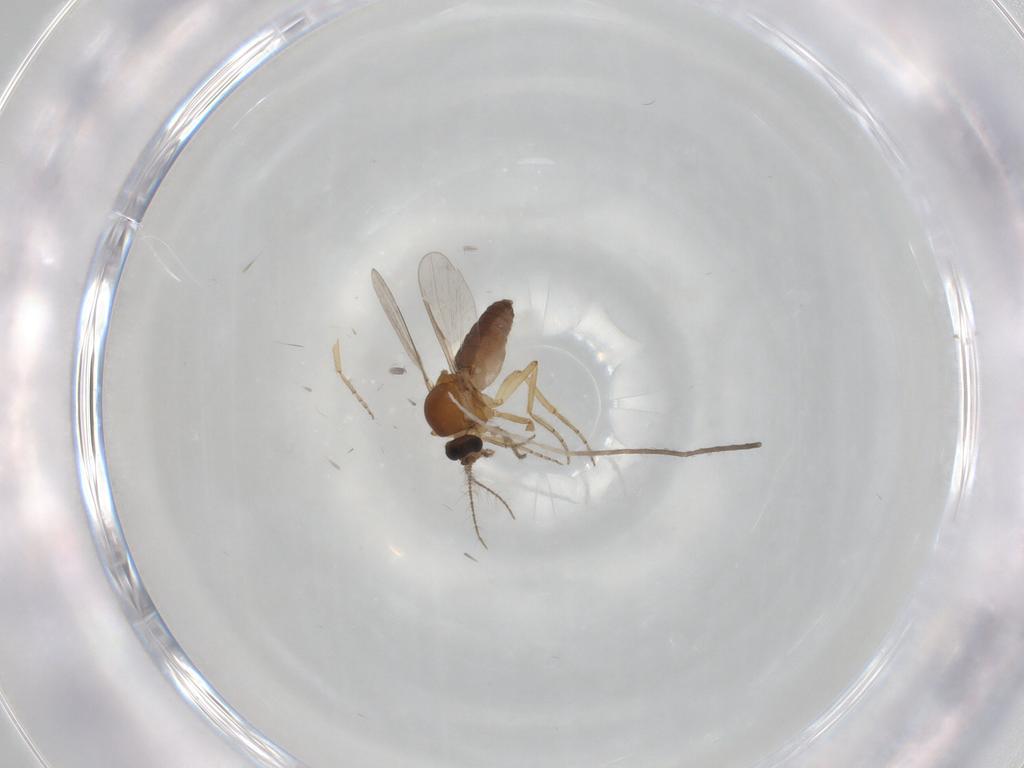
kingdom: Animalia
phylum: Arthropoda
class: Insecta
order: Diptera
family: Ceratopogonidae
